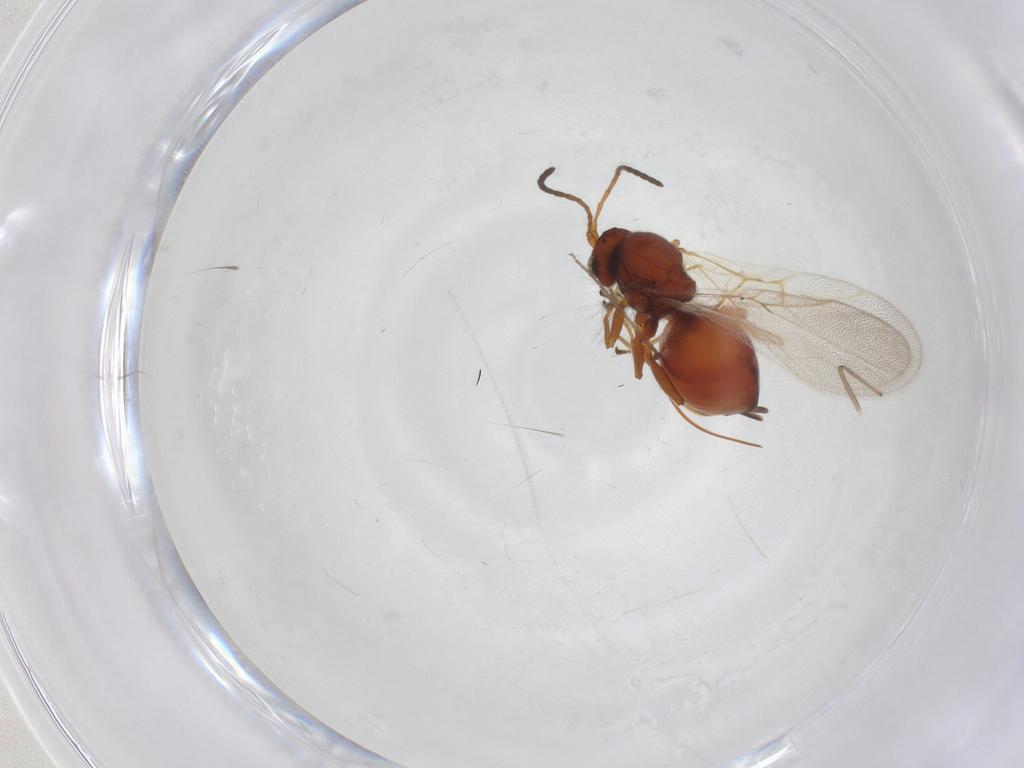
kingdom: Animalia
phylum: Arthropoda
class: Insecta
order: Hymenoptera
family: Cynipidae
